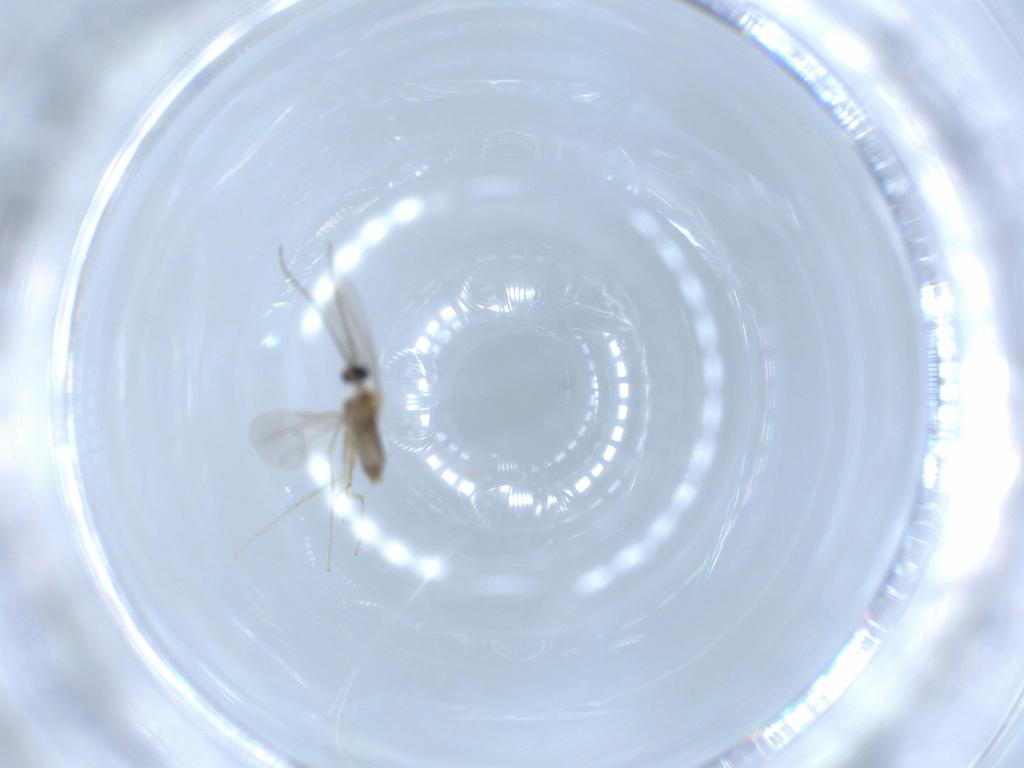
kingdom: Animalia
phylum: Arthropoda
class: Insecta
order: Diptera
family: Cecidomyiidae
